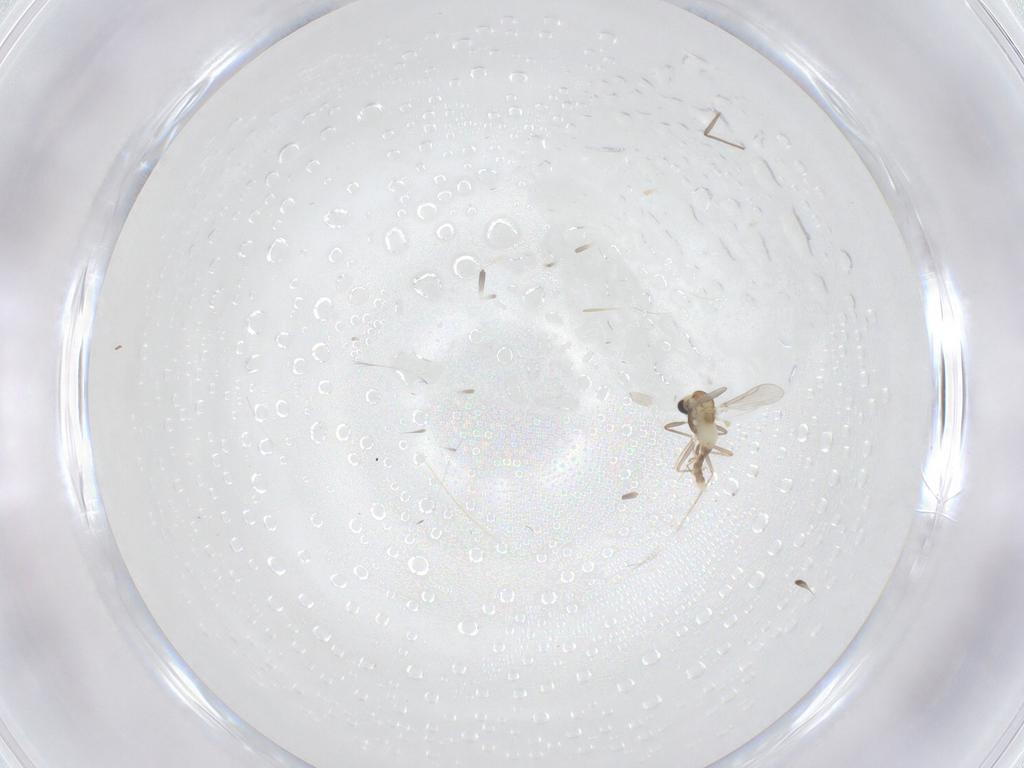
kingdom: Animalia
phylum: Arthropoda
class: Insecta
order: Diptera
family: Chironomidae
